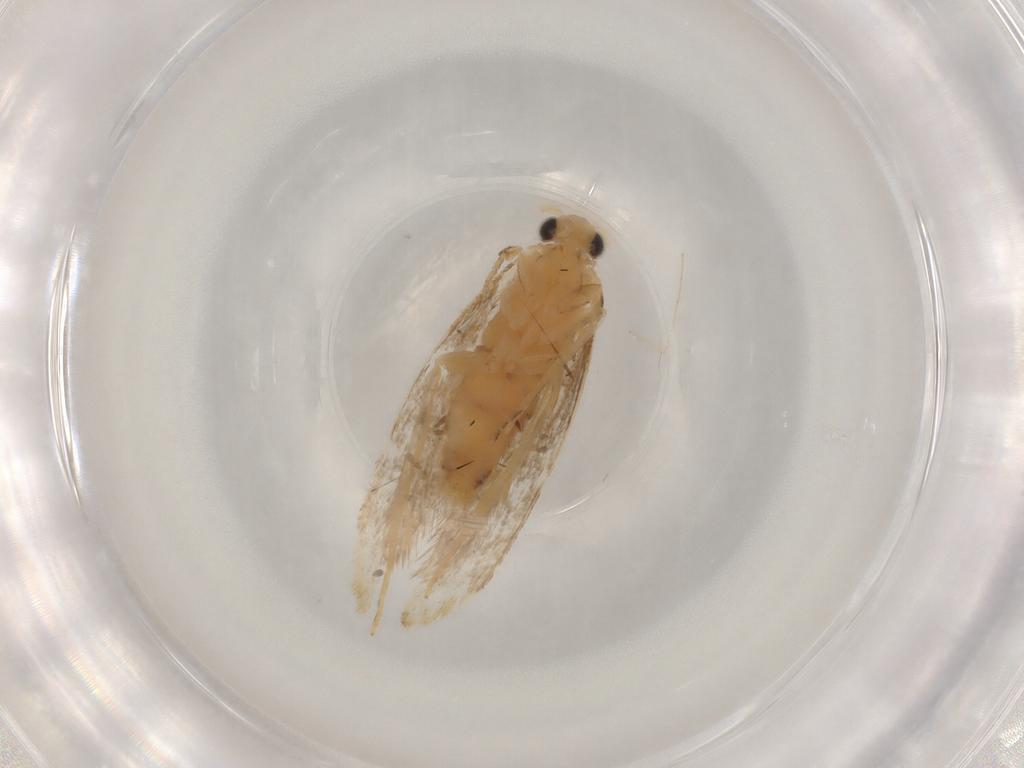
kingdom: Animalia
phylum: Arthropoda
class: Insecta
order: Lepidoptera
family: Dryadaulidae
